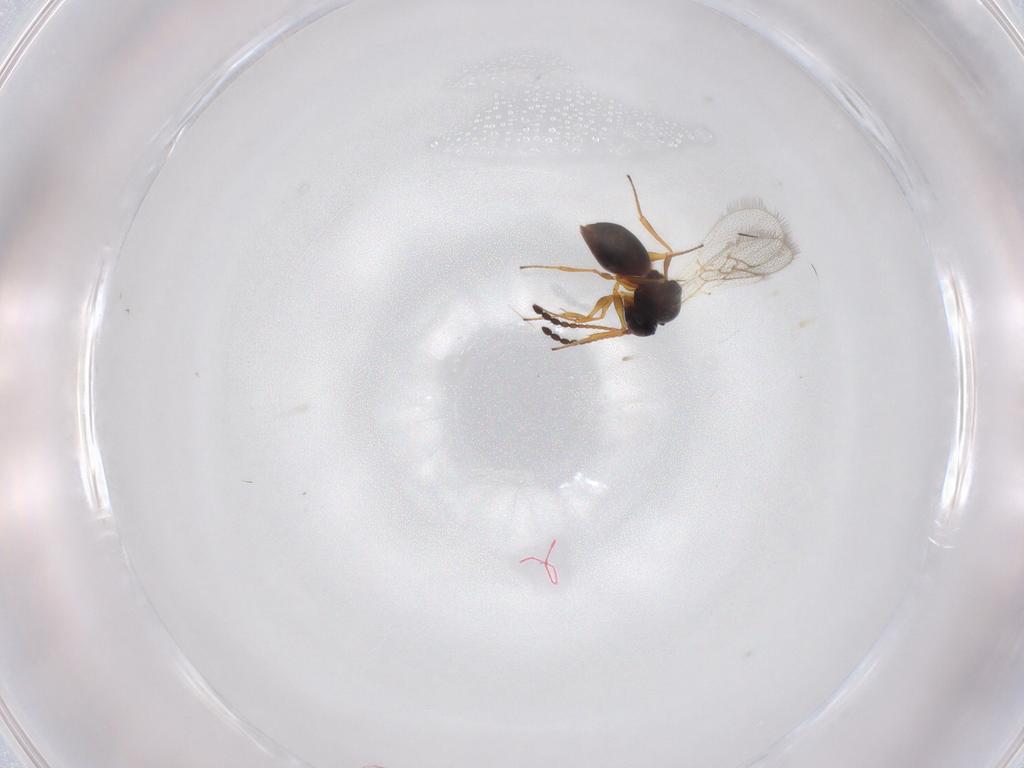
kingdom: Animalia
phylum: Arthropoda
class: Insecta
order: Hymenoptera
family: Figitidae
